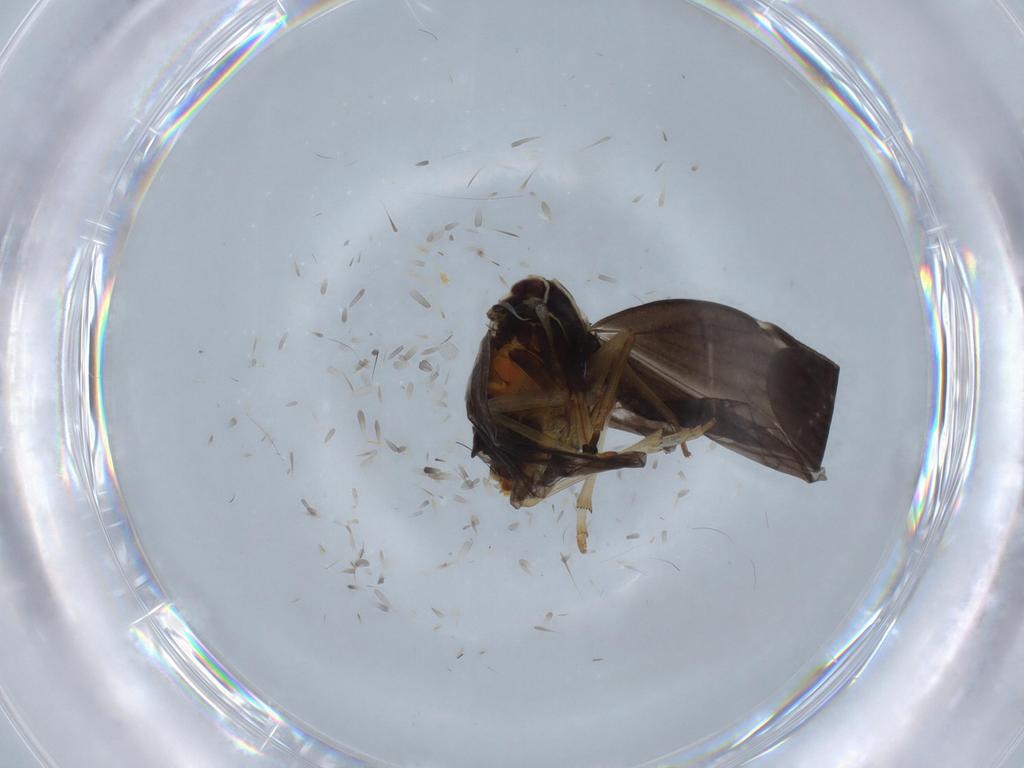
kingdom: Animalia
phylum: Arthropoda
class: Insecta
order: Hemiptera
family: Derbidae
